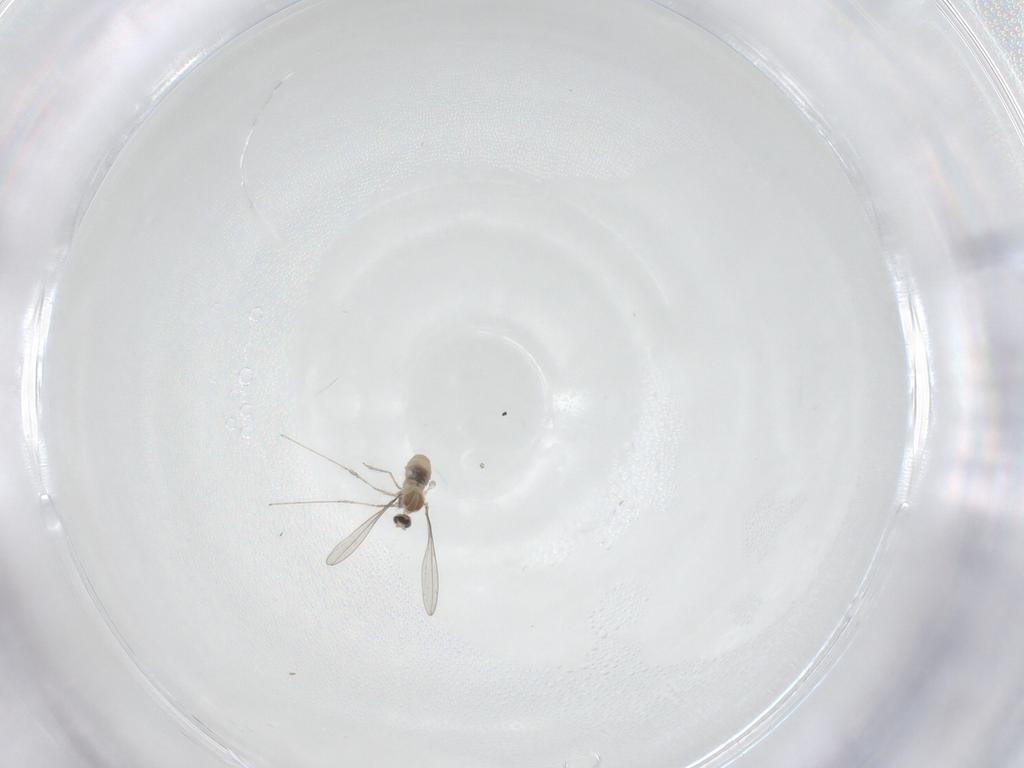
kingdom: Animalia
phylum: Arthropoda
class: Insecta
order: Diptera
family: Cecidomyiidae
